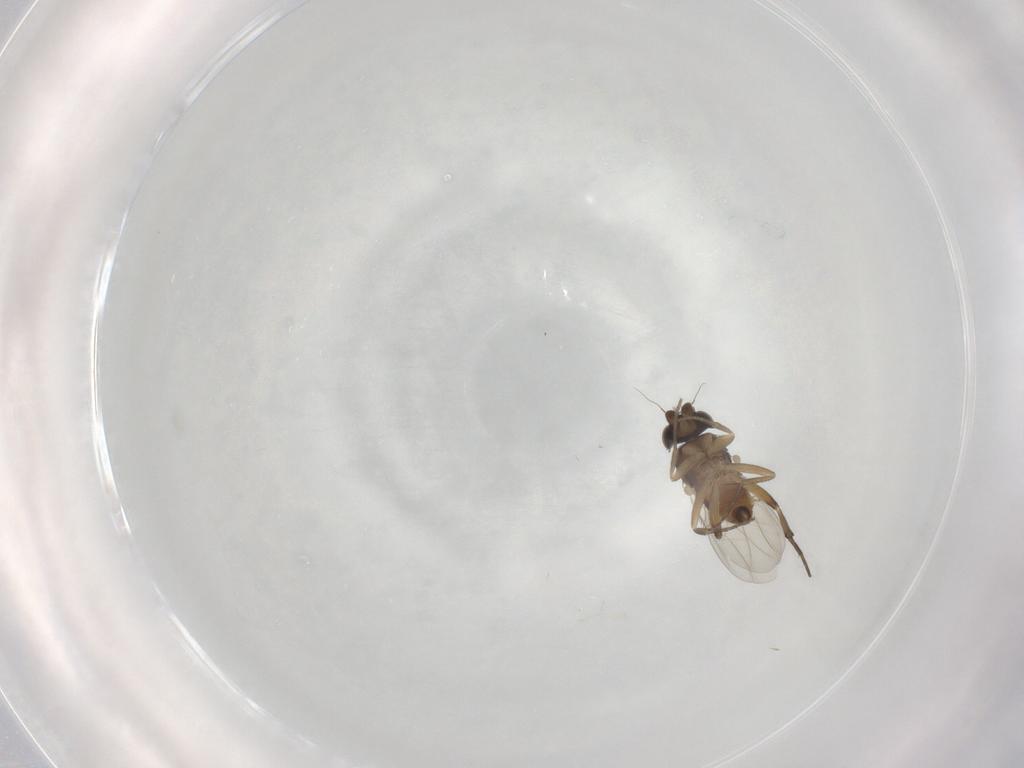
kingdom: Animalia
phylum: Arthropoda
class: Insecta
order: Diptera
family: Phoridae
